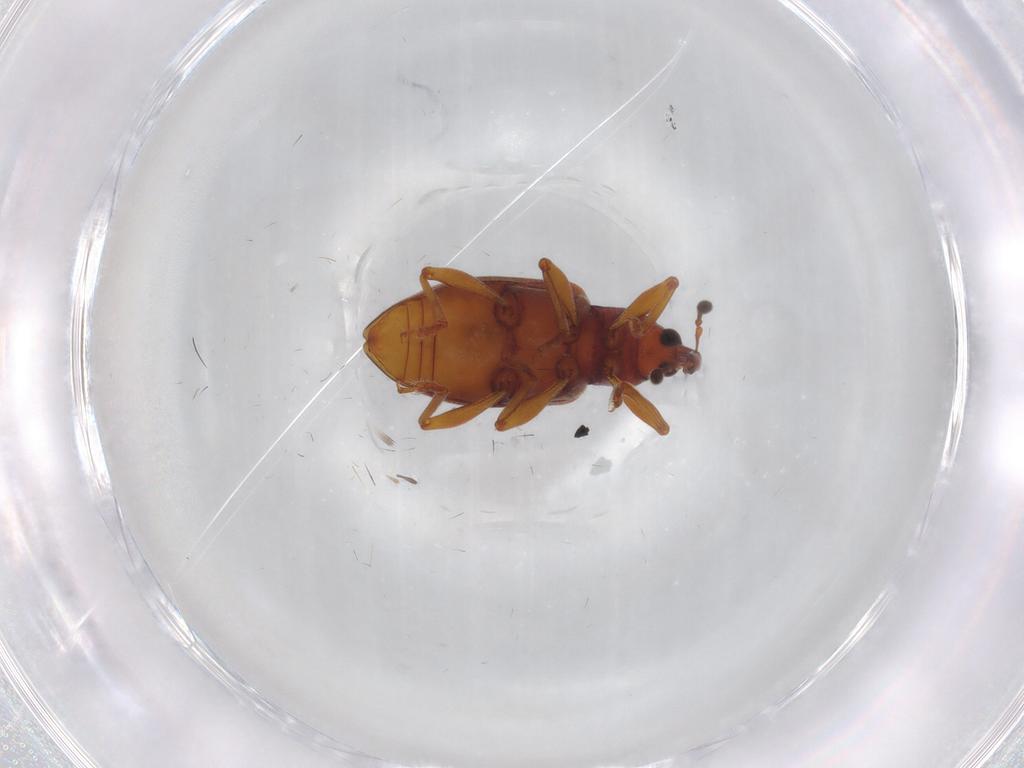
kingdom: Animalia
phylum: Arthropoda
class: Insecta
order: Coleoptera
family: Curculionidae
